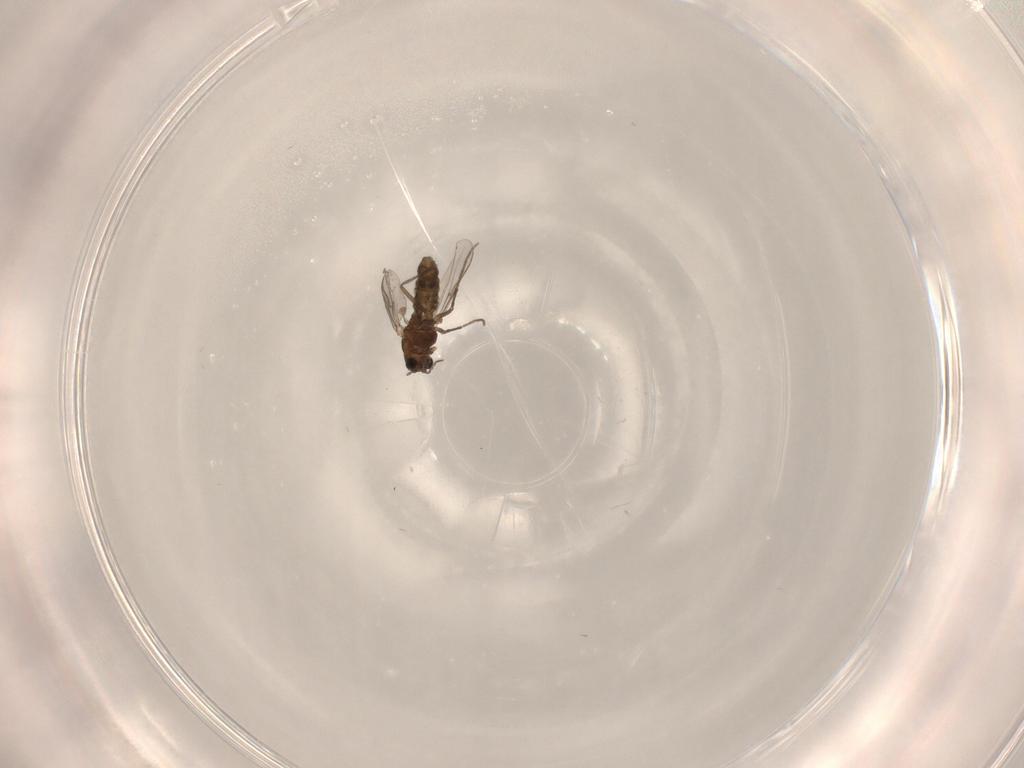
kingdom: Animalia
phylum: Arthropoda
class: Insecta
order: Diptera
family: Chironomidae
